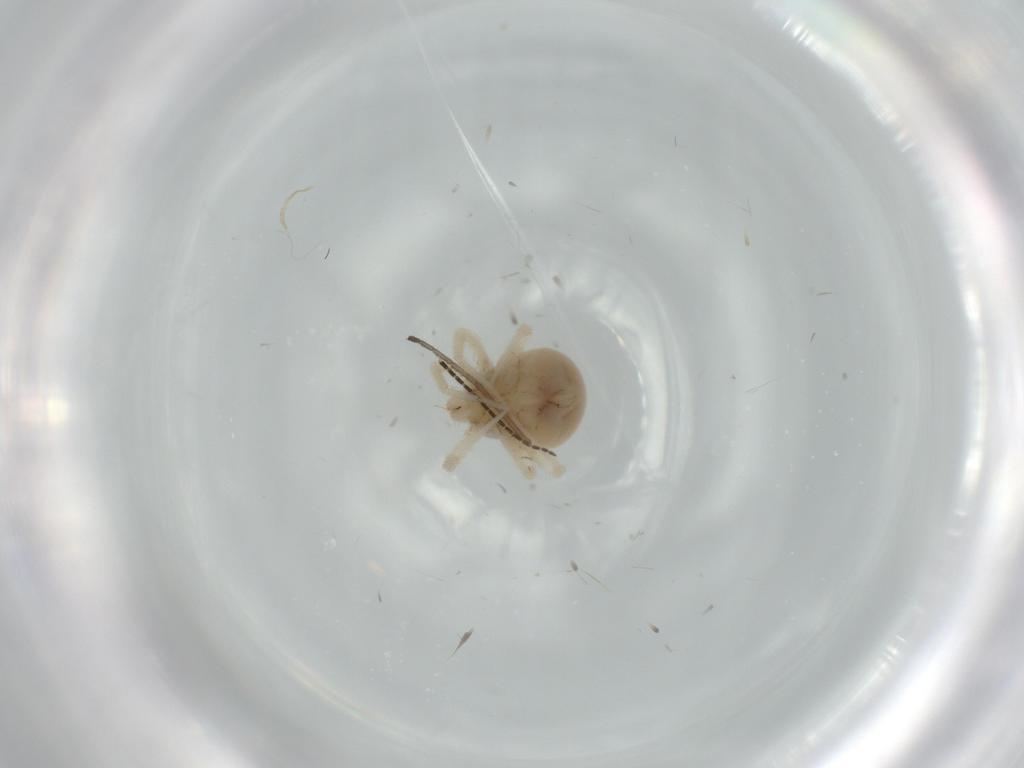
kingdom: Animalia
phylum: Arthropoda
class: Arachnida
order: Trombidiformes
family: Anystidae
